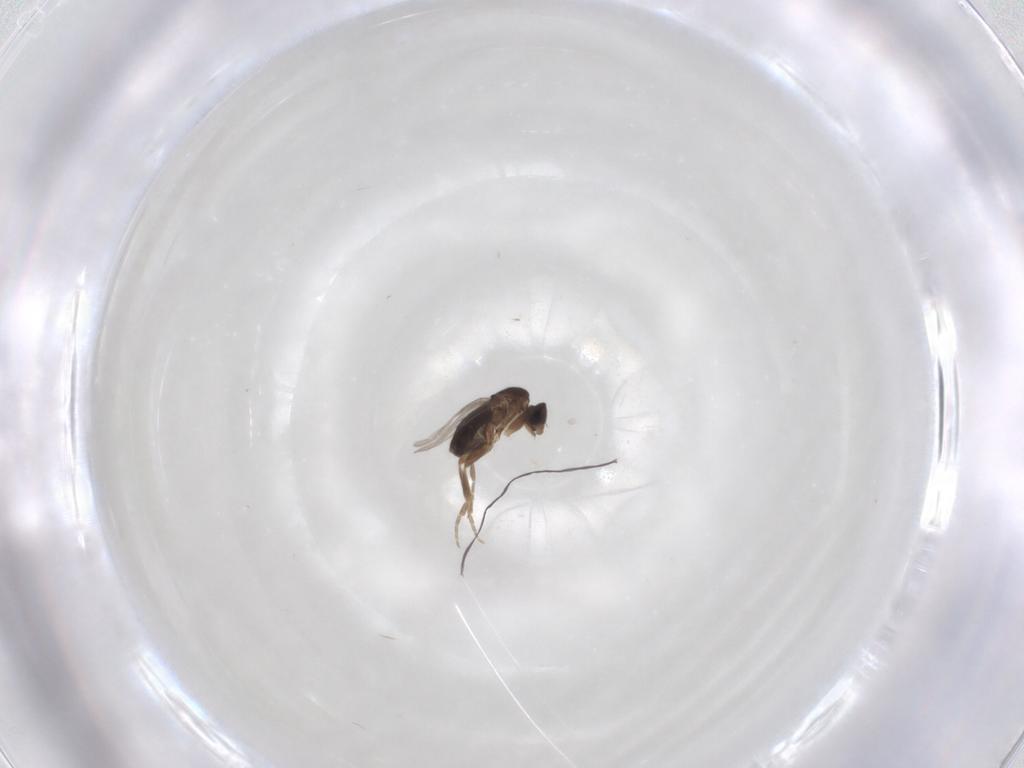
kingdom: Animalia
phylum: Arthropoda
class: Insecta
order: Diptera
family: Phoridae
